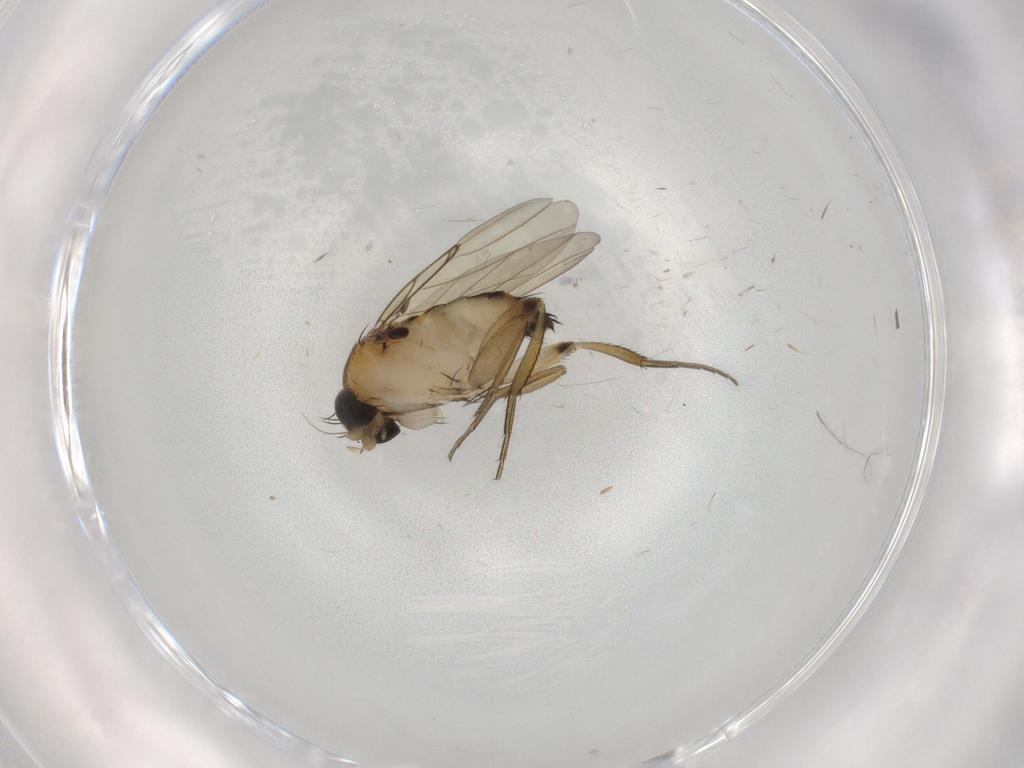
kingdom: Animalia
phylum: Arthropoda
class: Insecta
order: Diptera
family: Phoridae
